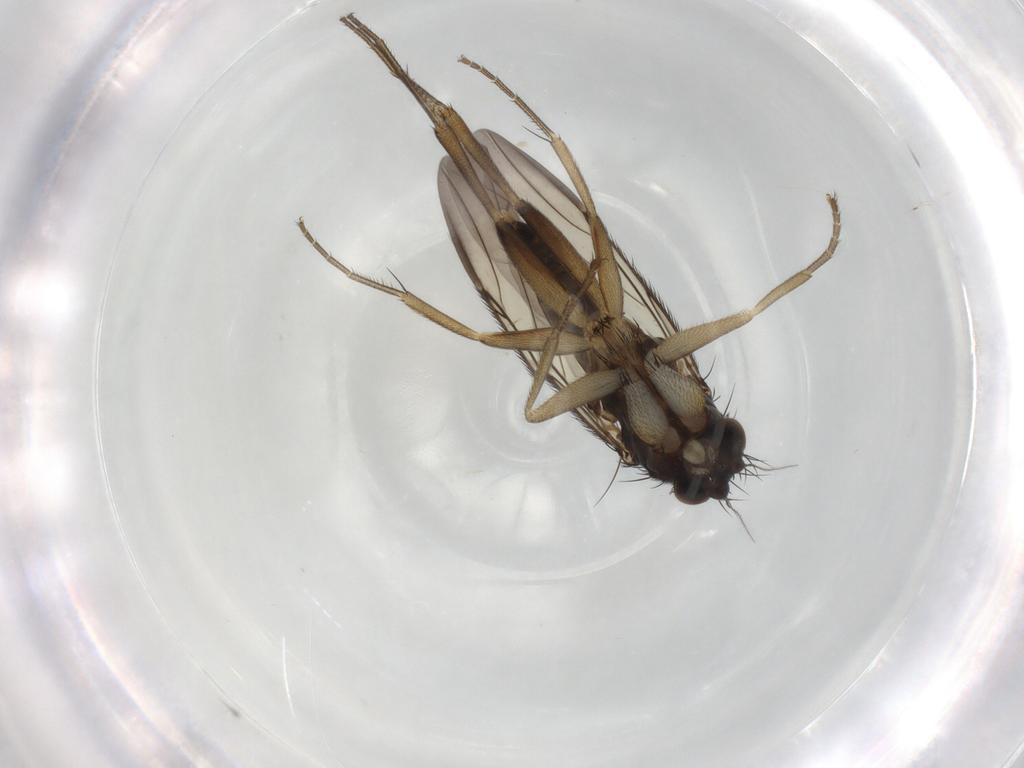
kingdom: Animalia
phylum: Arthropoda
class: Insecta
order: Diptera
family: Phoridae
